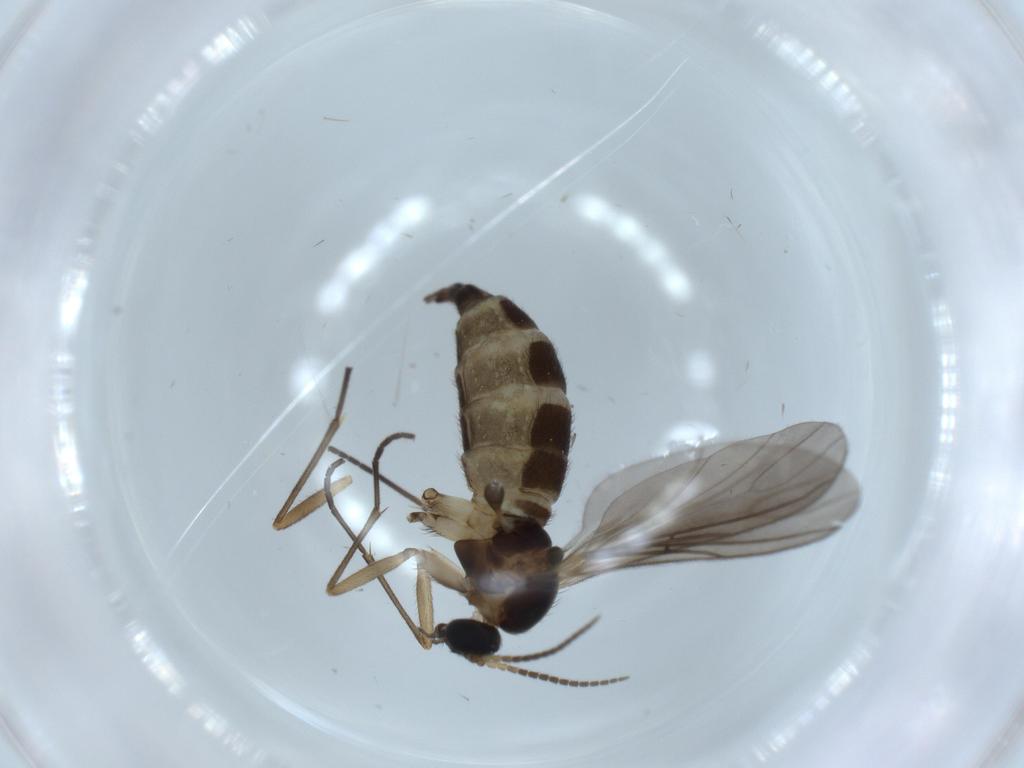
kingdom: Animalia
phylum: Arthropoda
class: Insecta
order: Diptera
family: Sciaridae
